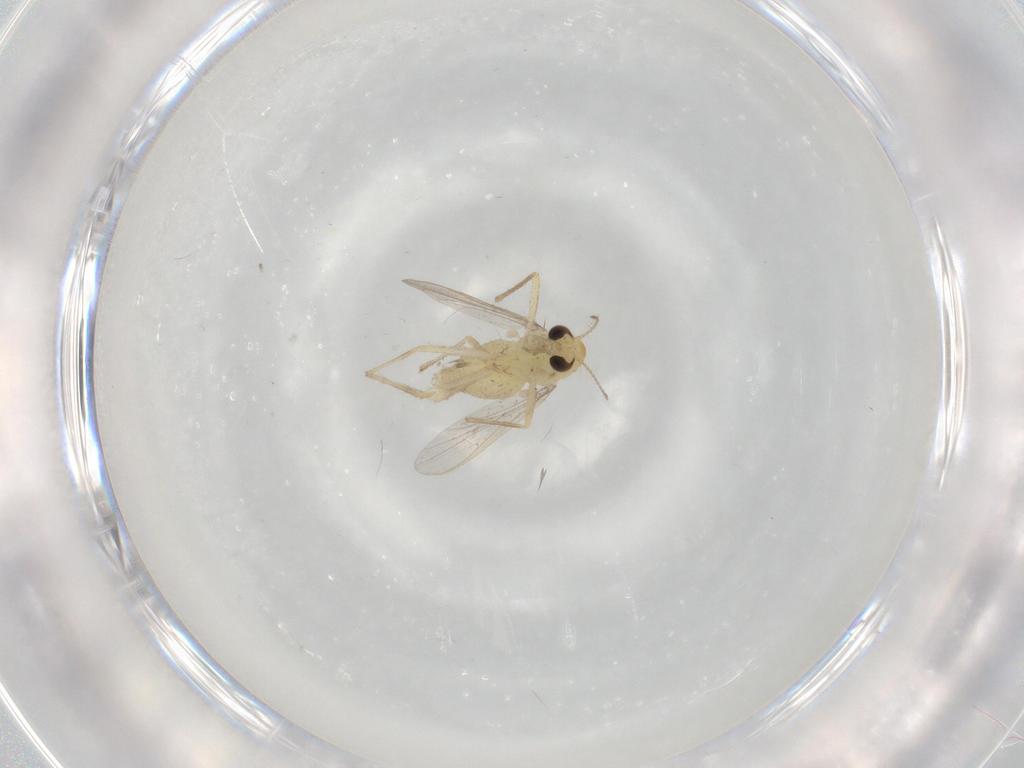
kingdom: Animalia
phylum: Arthropoda
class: Insecta
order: Diptera
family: Chironomidae
